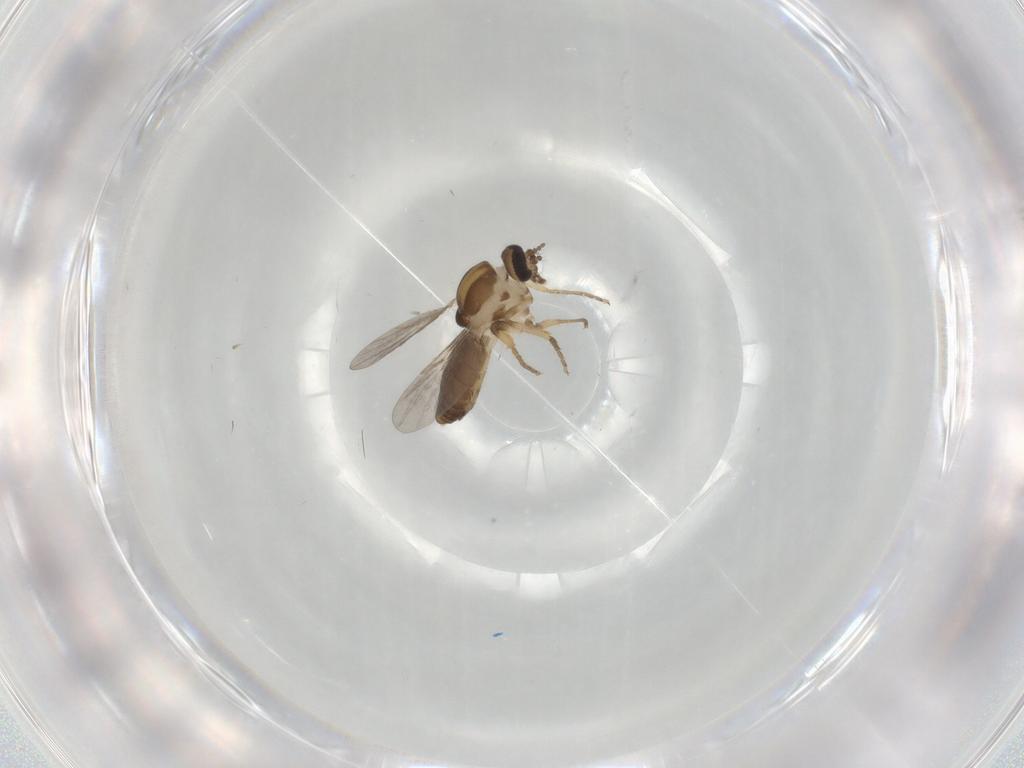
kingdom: Animalia
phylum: Arthropoda
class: Insecta
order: Diptera
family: Ceratopogonidae
